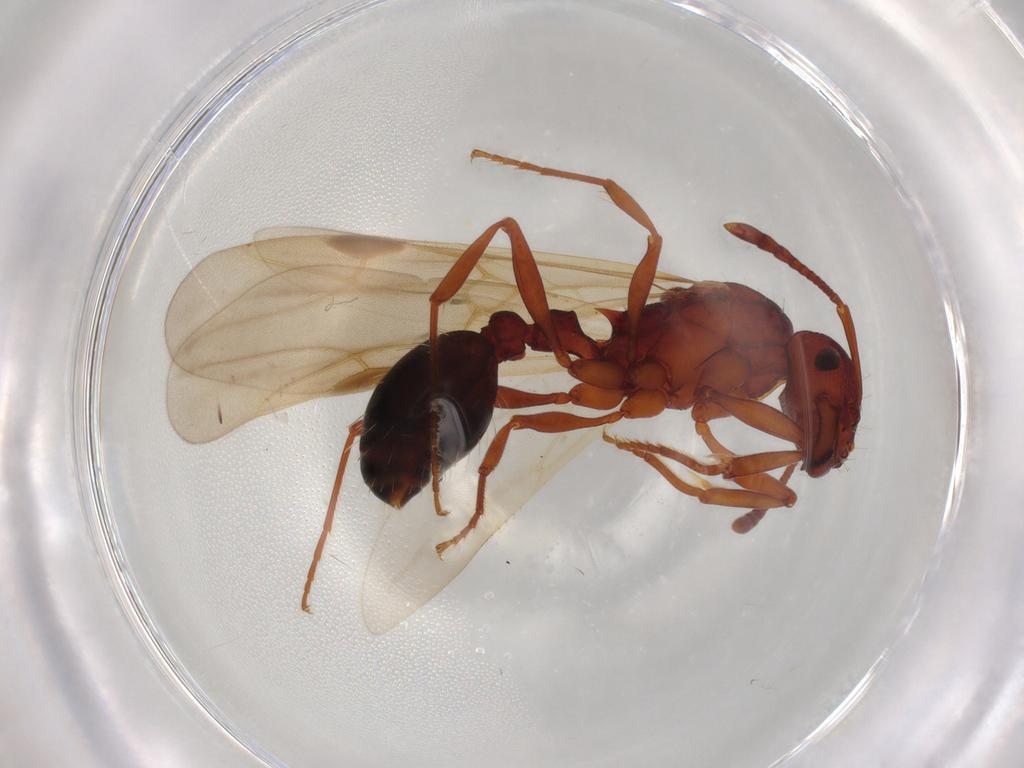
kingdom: Animalia
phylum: Arthropoda
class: Insecta
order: Hymenoptera
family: Formicidae
